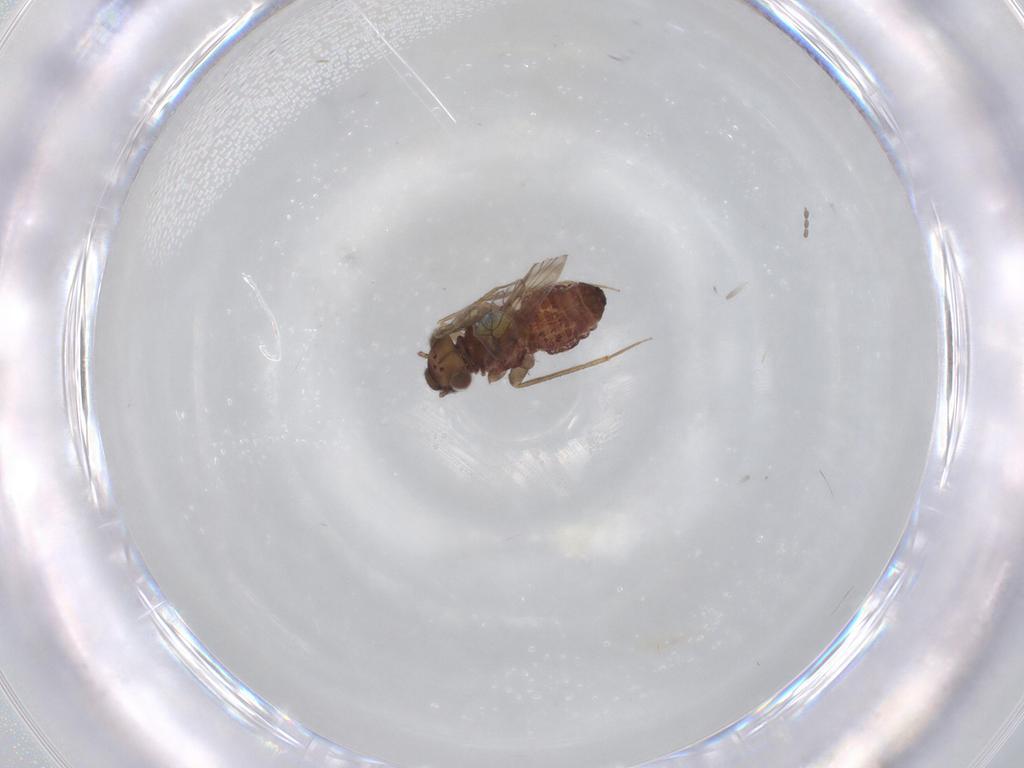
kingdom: Animalia
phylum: Arthropoda
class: Insecta
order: Psocodea
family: Lepidopsocidae
